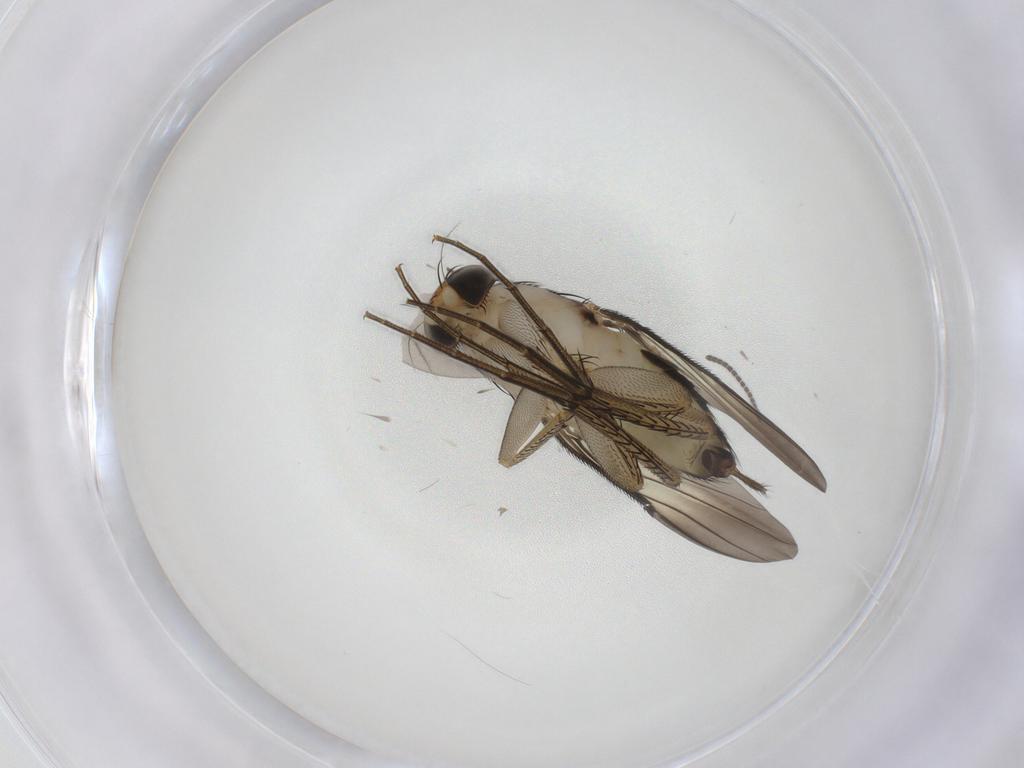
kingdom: Animalia
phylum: Arthropoda
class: Insecta
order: Diptera
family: Phoridae
